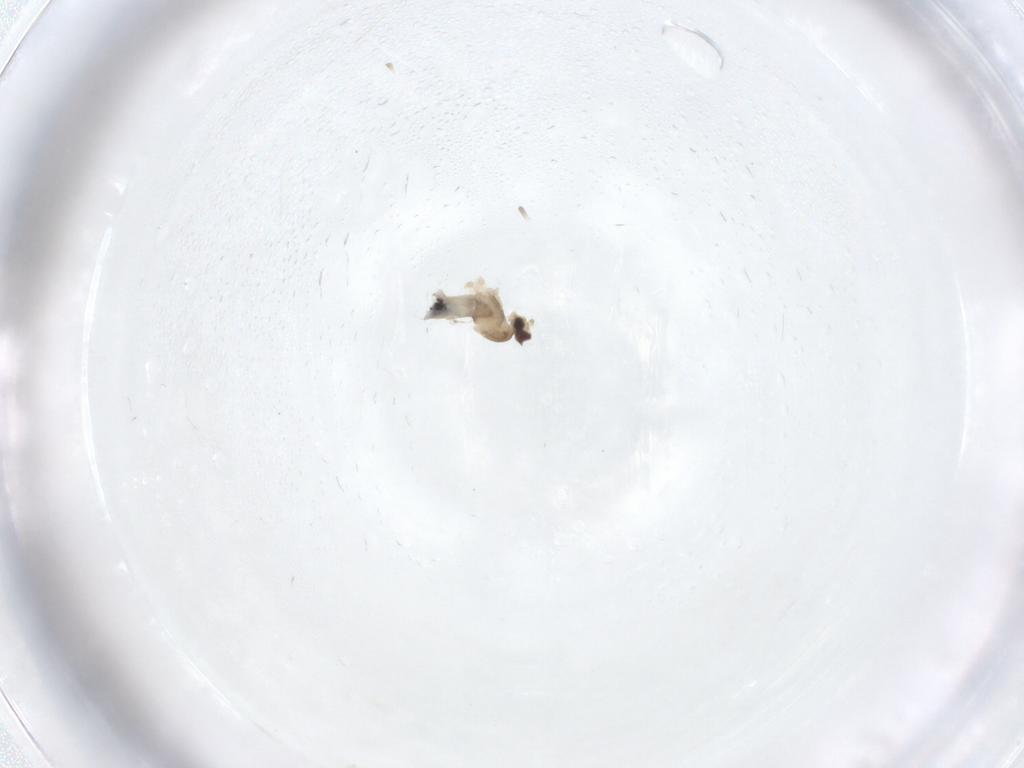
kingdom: Animalia
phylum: Arthropoda
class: Insecta
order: Diptera
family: Cecidomyiidae
